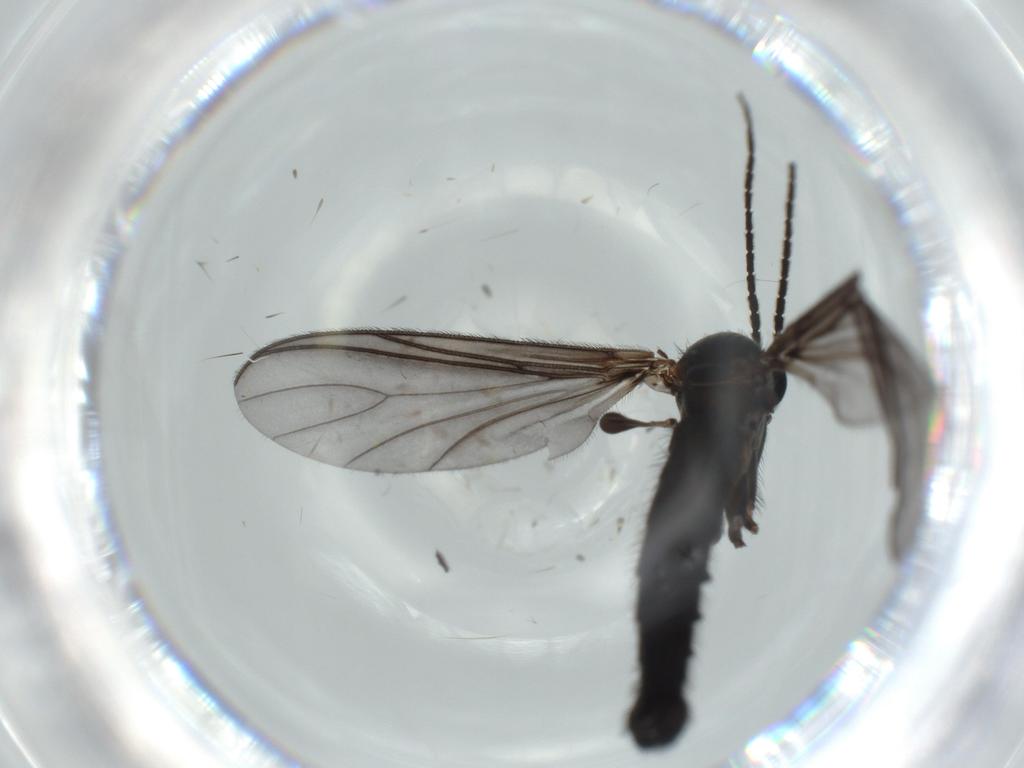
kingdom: Animalia
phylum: Arthropoda
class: Insecta
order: Diptera
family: Mycetophilidae
